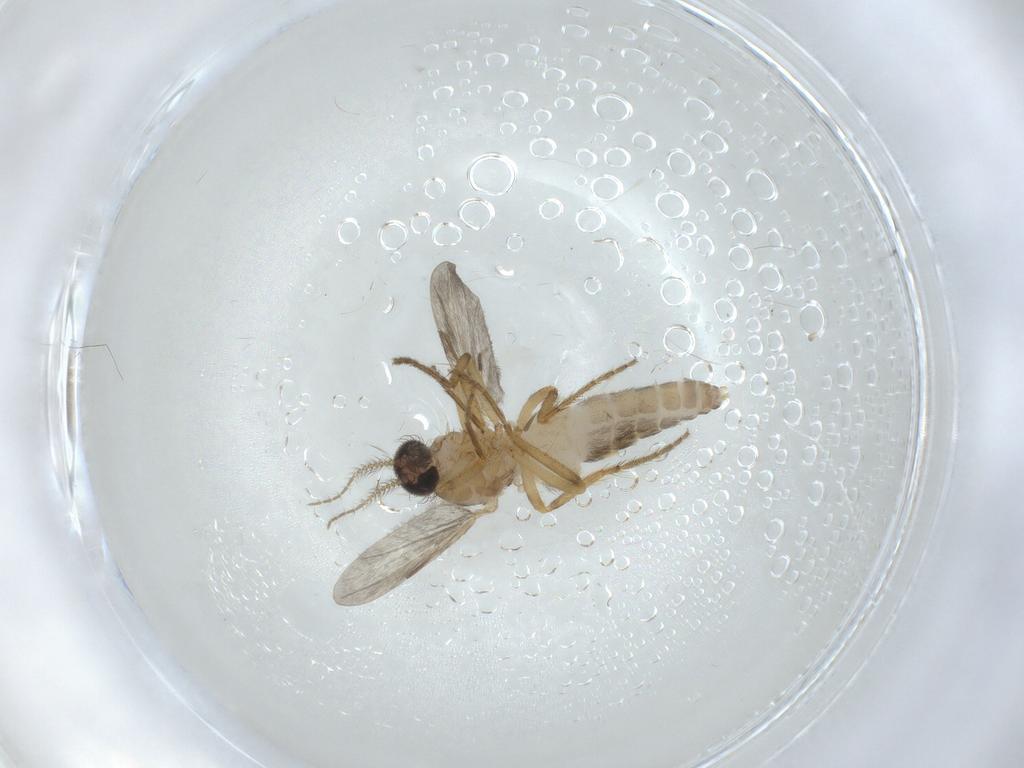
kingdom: Animalia
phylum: Arthropoda
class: Insecta
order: Diptera
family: Ceratopogonidae
